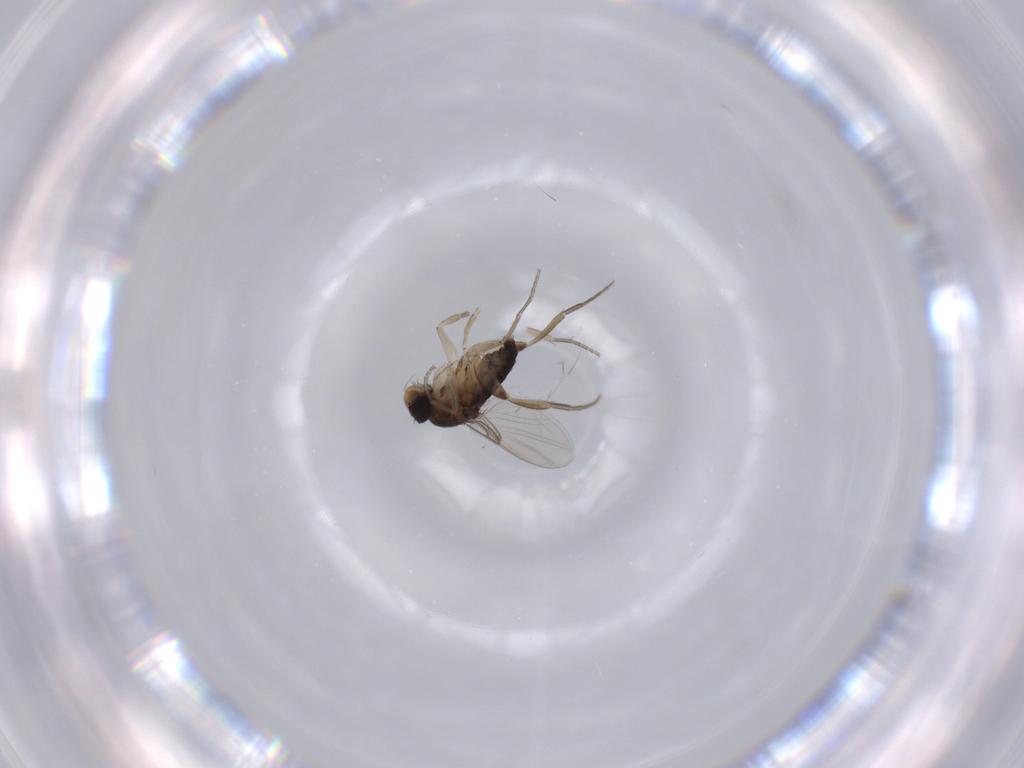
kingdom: Animalia
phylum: Arthropoda
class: Insecta
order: Diptera
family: Phoridae
